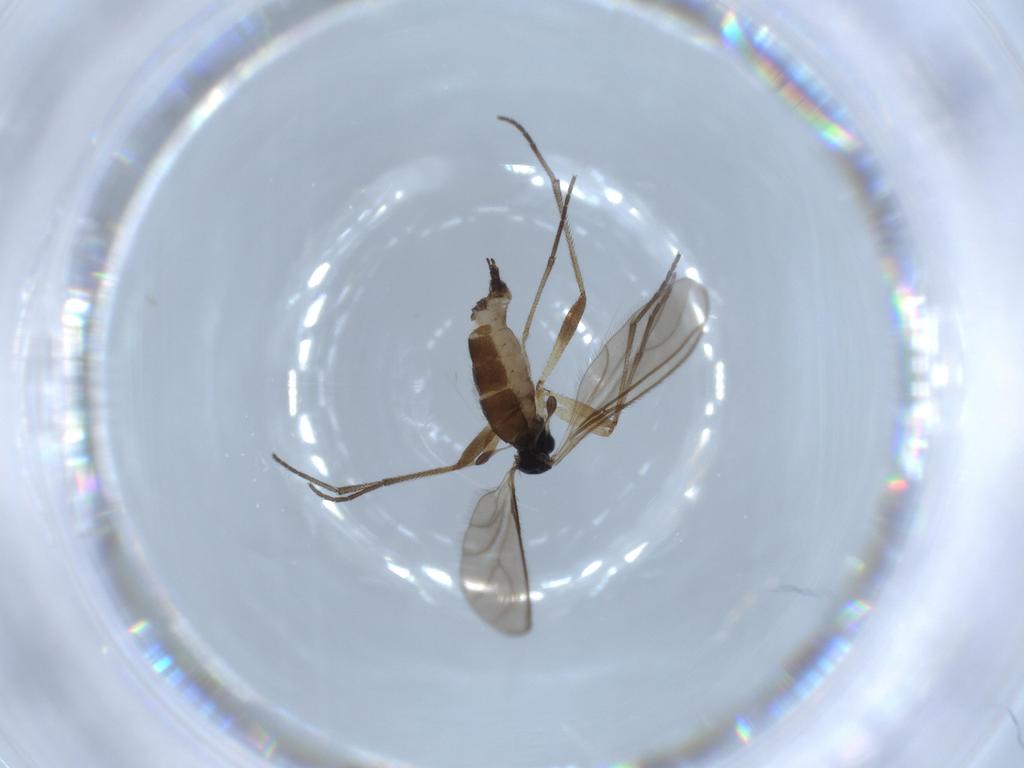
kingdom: Animalia
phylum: Arthropoda
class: Insecta
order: Diptera
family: Sciaridae
